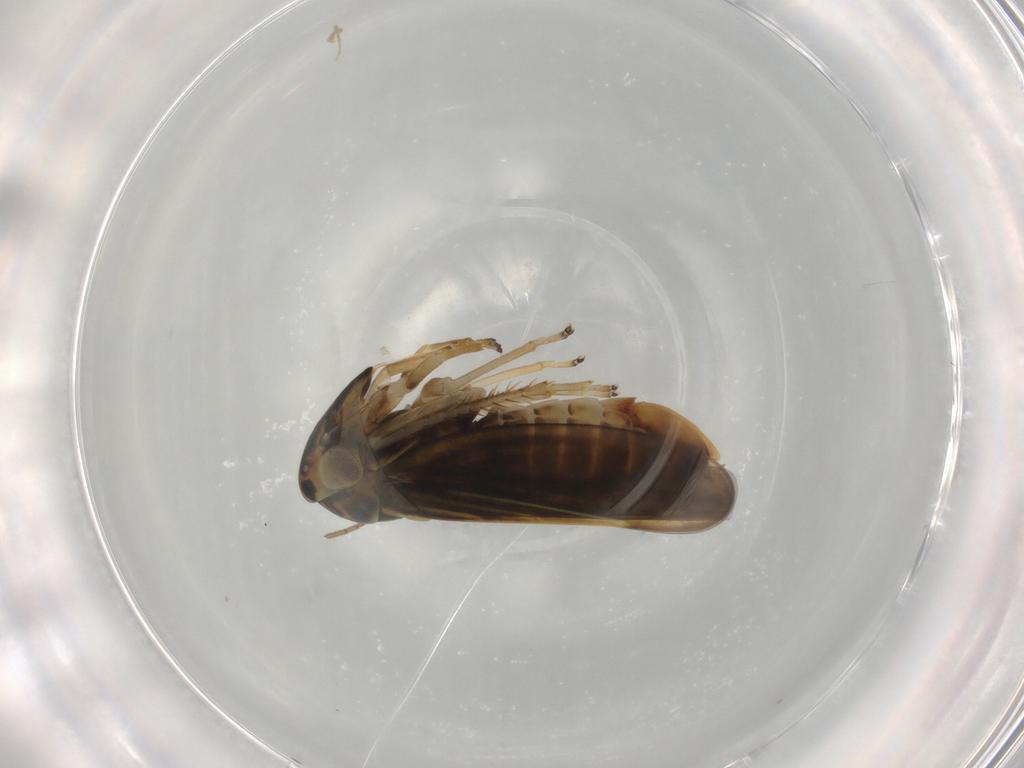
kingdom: Animalia
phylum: Arthropoda
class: Insecta
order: Hemiptera
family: Cicadellidae
